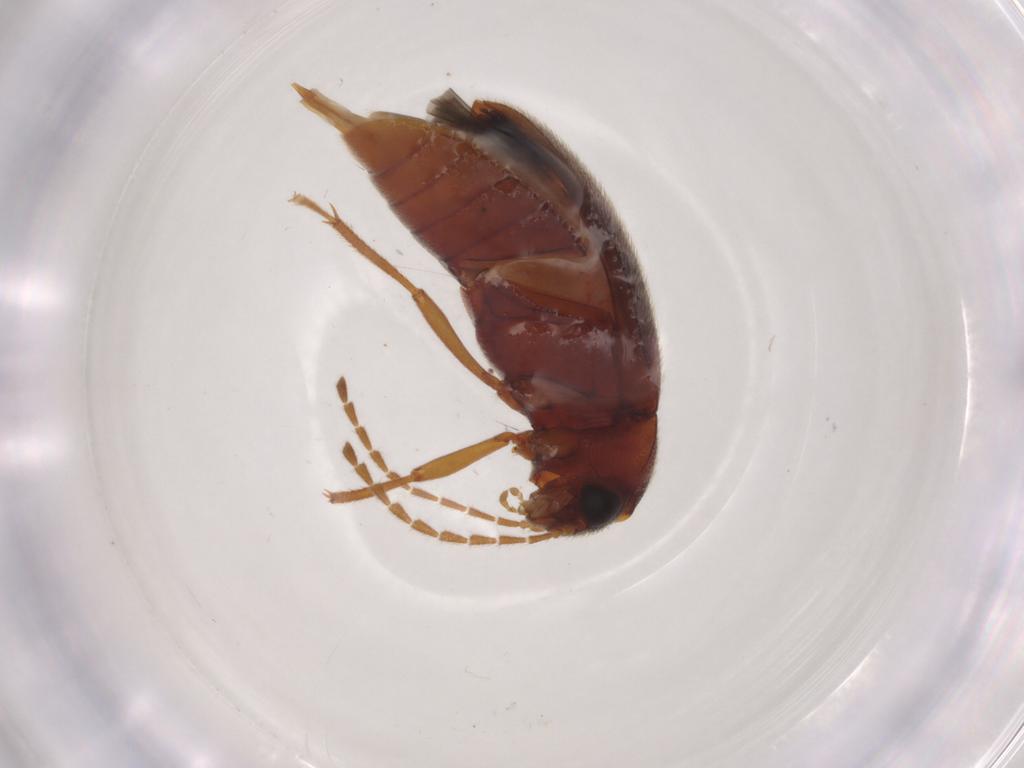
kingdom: Animalia
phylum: Arthropoda
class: Insecta
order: Coleoptera
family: Ptilodactylidae
